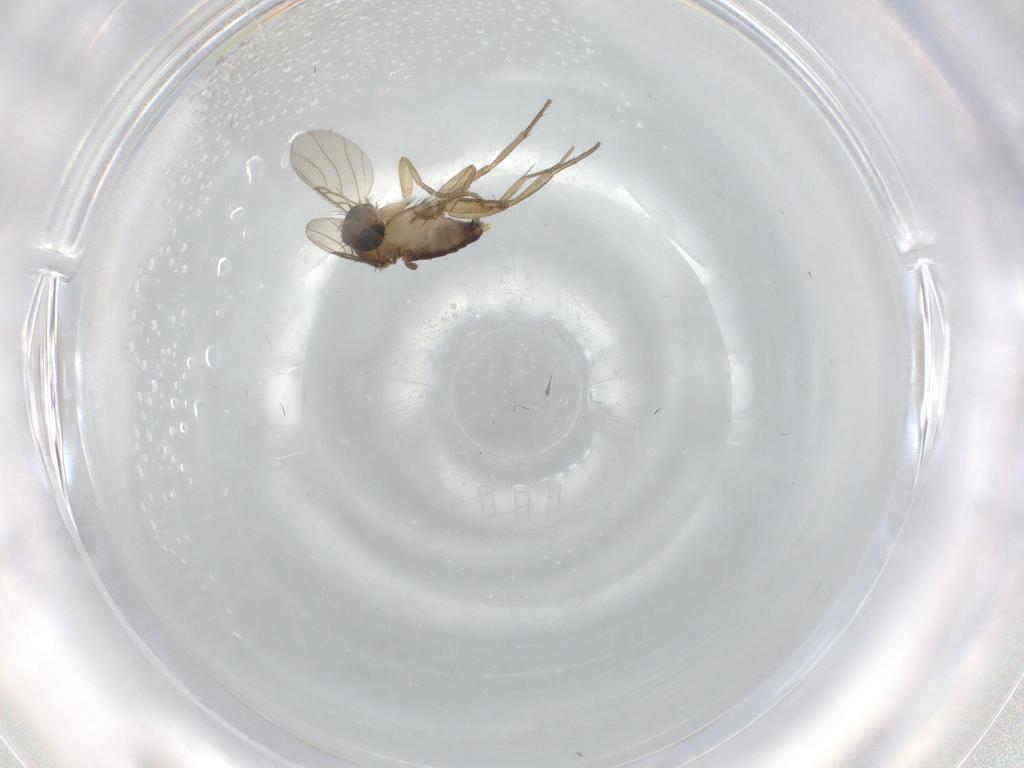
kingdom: Animalia
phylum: Arthropoda
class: Insecta
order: Diptera
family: Phoridae
